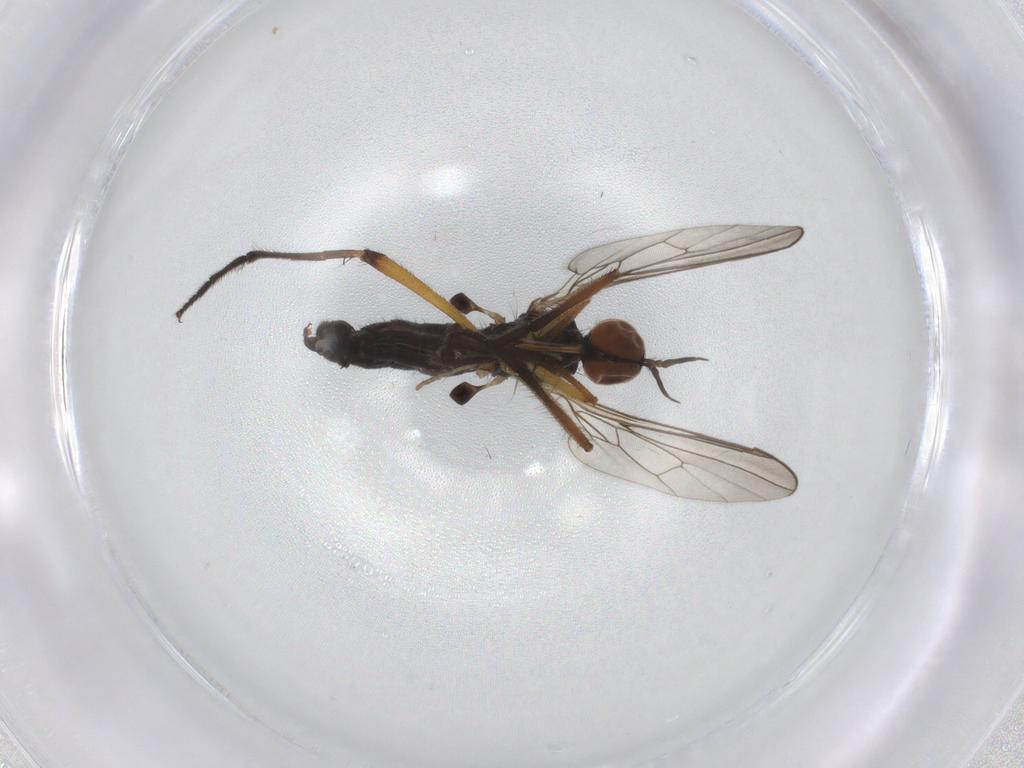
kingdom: Animalia
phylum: Arthropoda
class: Insecta
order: Diptera
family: Empididae
